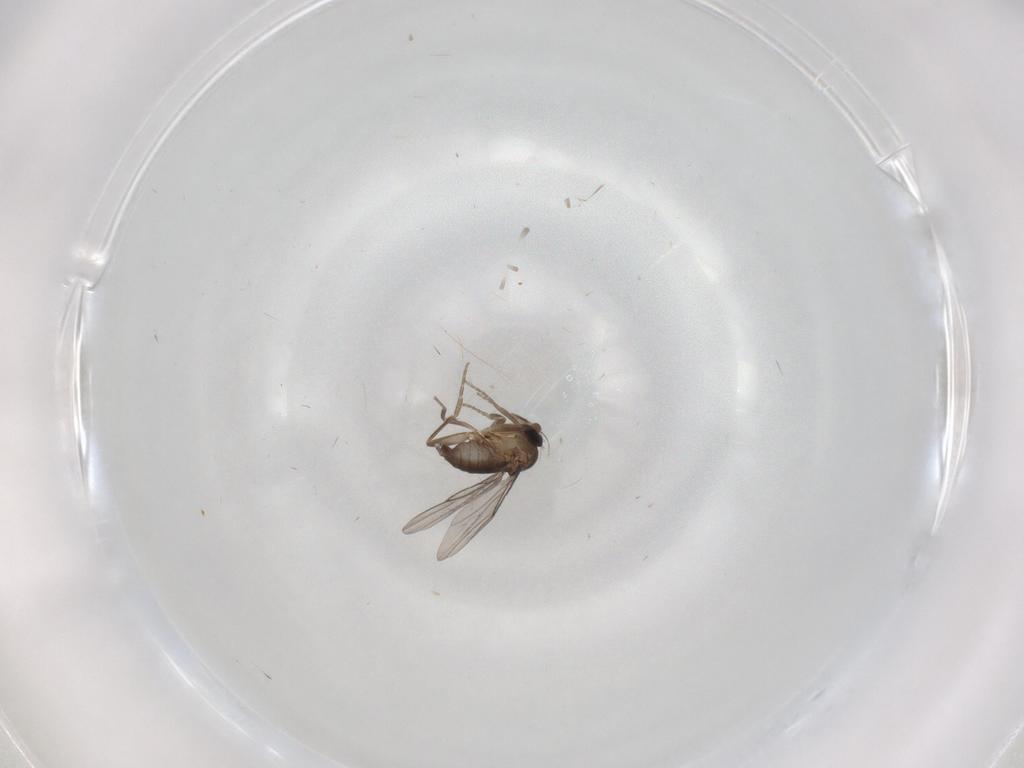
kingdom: Animalia
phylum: Arthropoda
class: Insecta
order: Diptera
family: Phoridae
